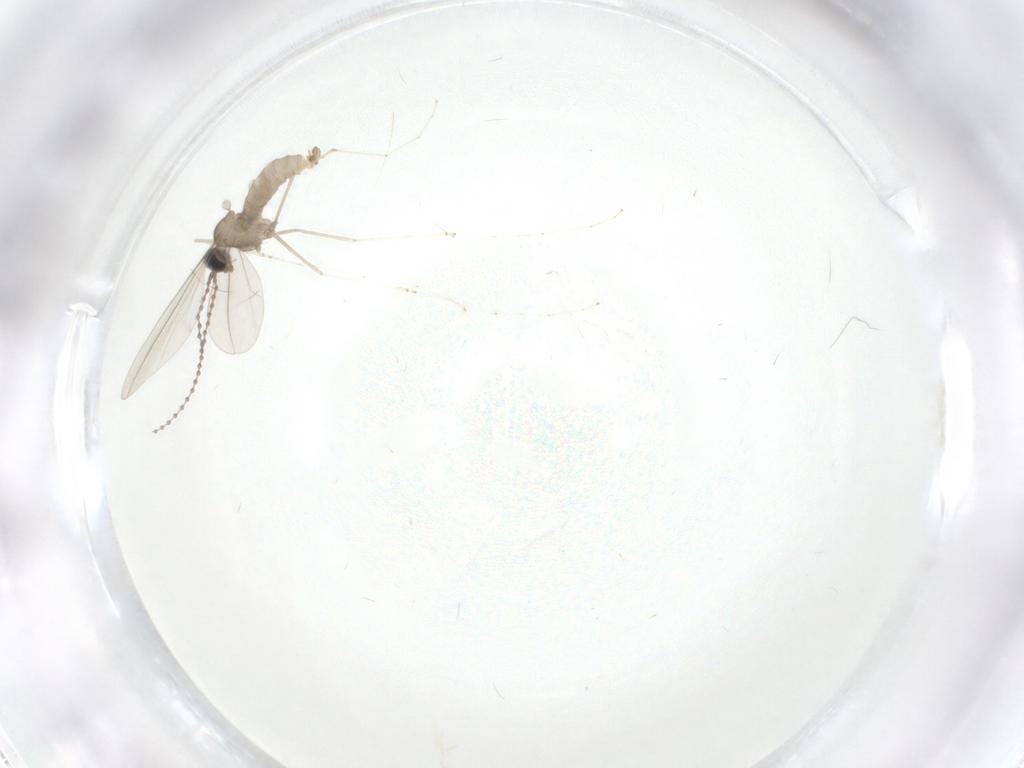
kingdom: Animalia
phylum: Arthropoda
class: Insecta
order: Diptera
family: Cecidomyiidae
